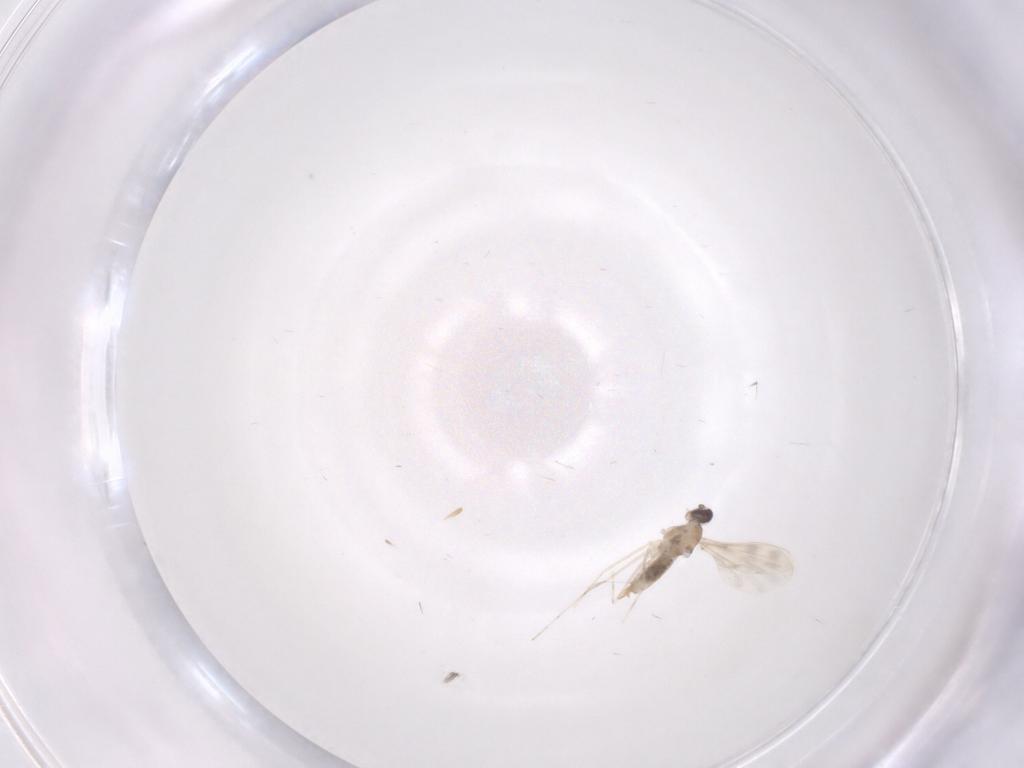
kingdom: Animalia
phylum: Arthropoda
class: Insecta
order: Diptera
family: Cecidomyiidae
